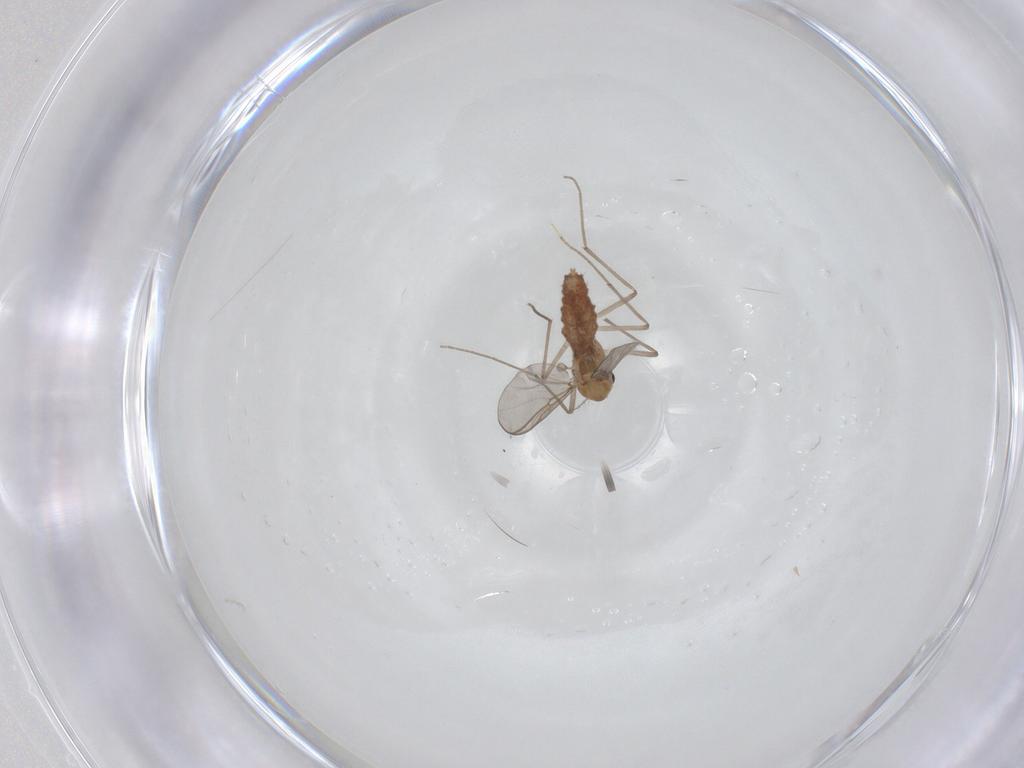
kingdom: Animalia
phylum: Arthropoda
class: Insecta
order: Diptera
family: Chironomidae
